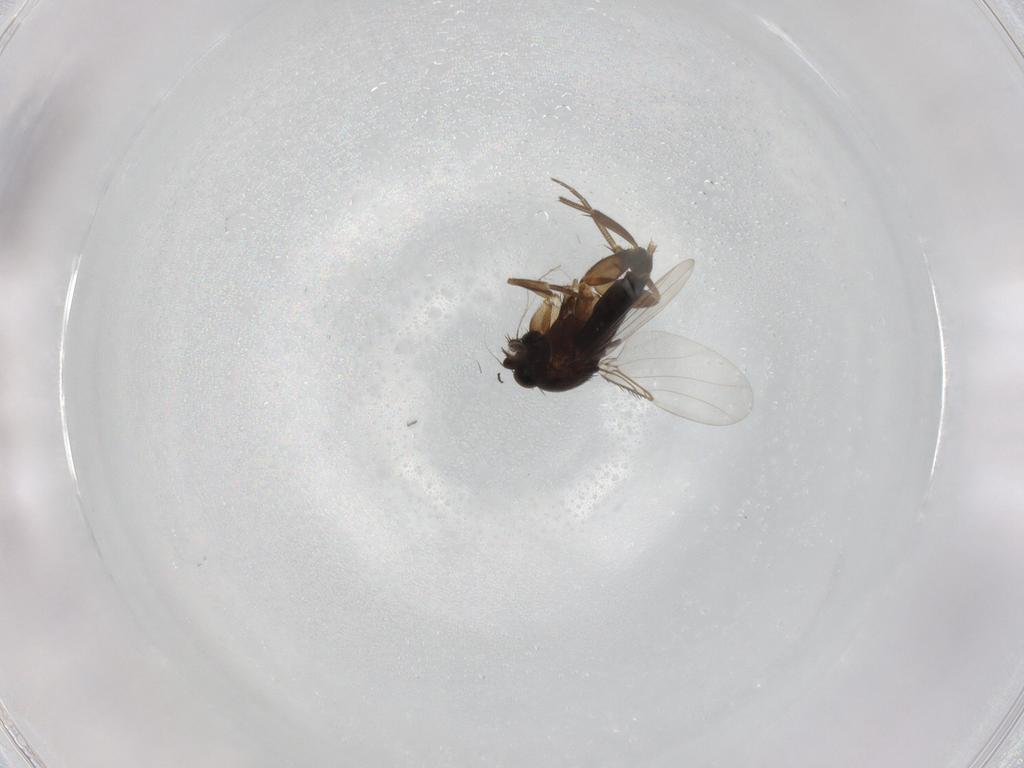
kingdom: Animalia
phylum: Arthropoda
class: Insecta
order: Diptera
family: Phoridae
